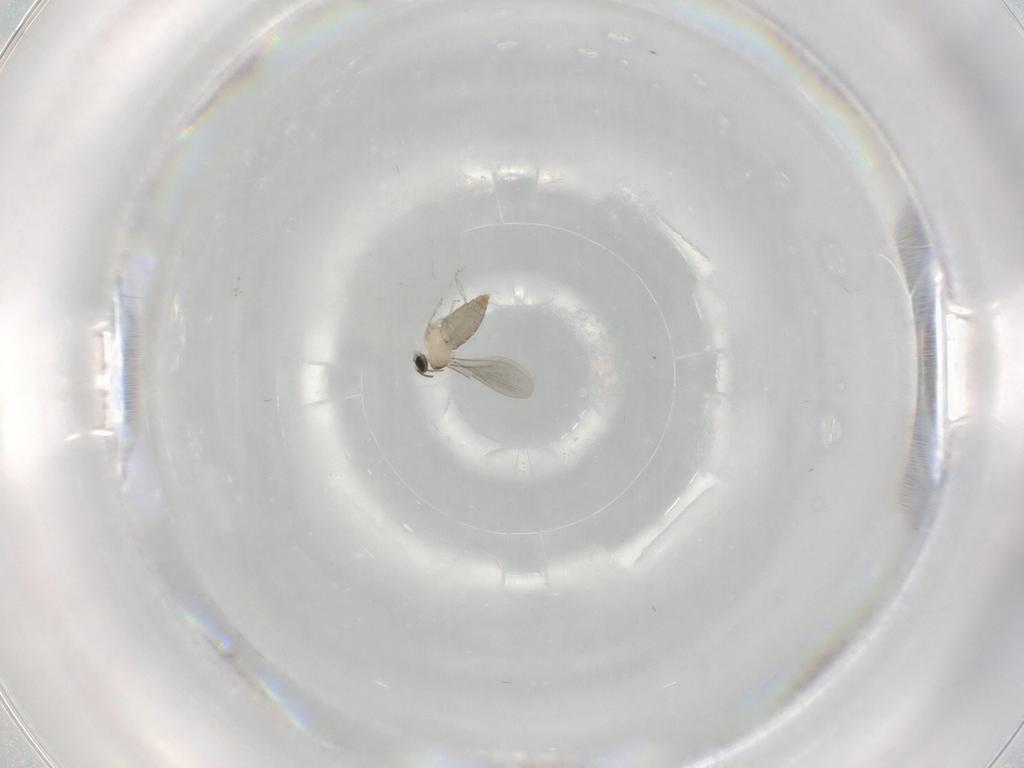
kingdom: Animalia
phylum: Arthropoda
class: Insecta
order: Diptera
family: Cecidomyiidae
